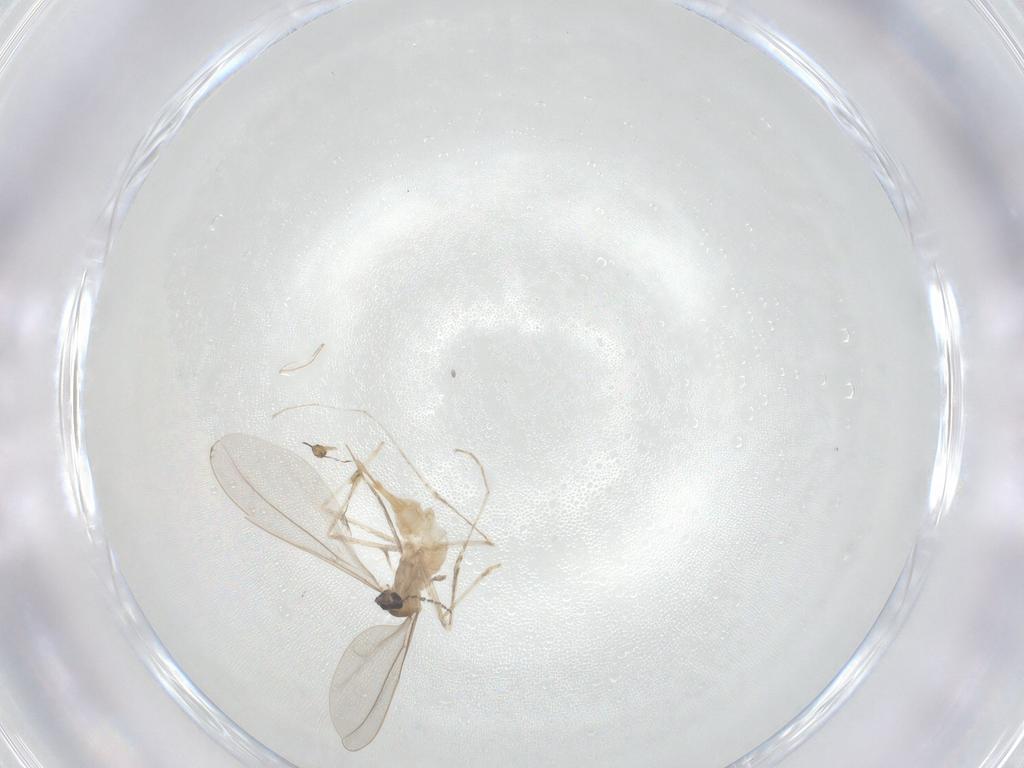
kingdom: Animalia
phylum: Arthropoda
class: Insecta
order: Diptera
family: Cecidomyiidae
